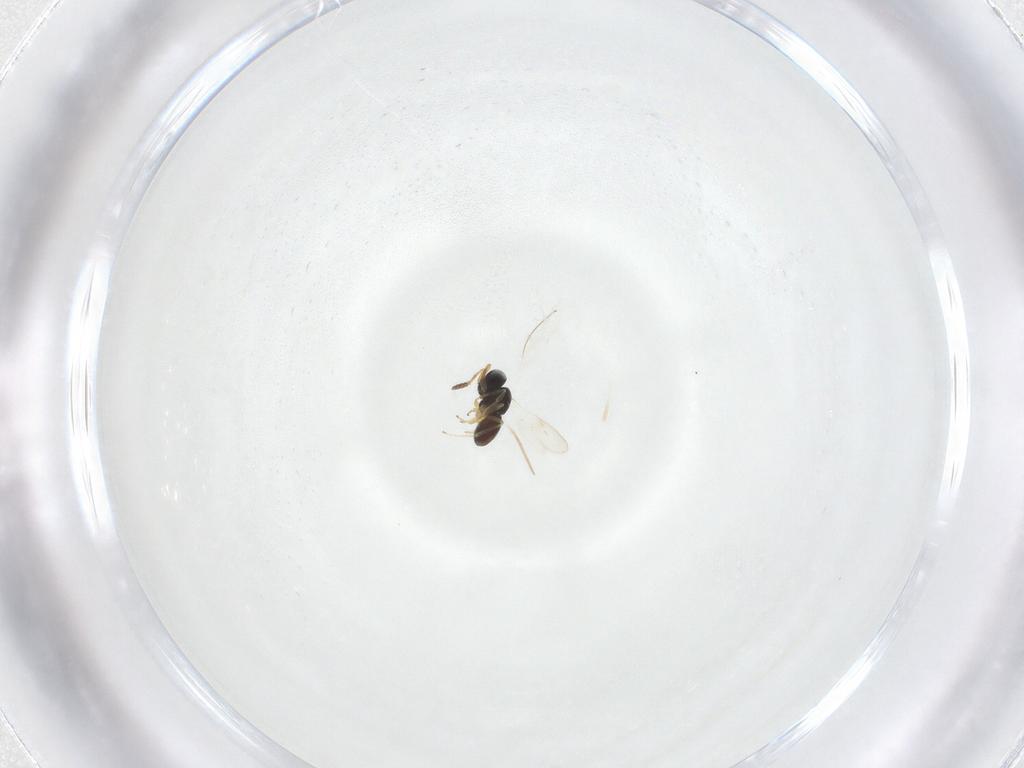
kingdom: Animalia
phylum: Arthropoda
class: Insecta
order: Hymenoptera
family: Scelionidae
